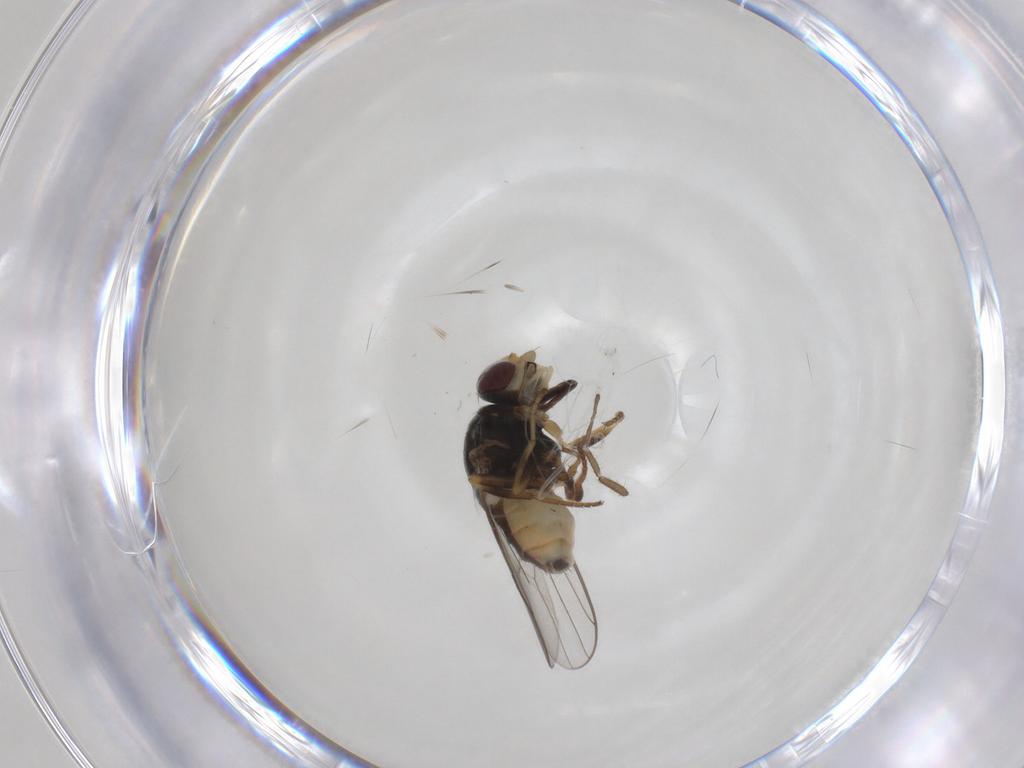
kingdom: Animalia
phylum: Arthropoda
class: Insecta
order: Diptera
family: Chloropidae
